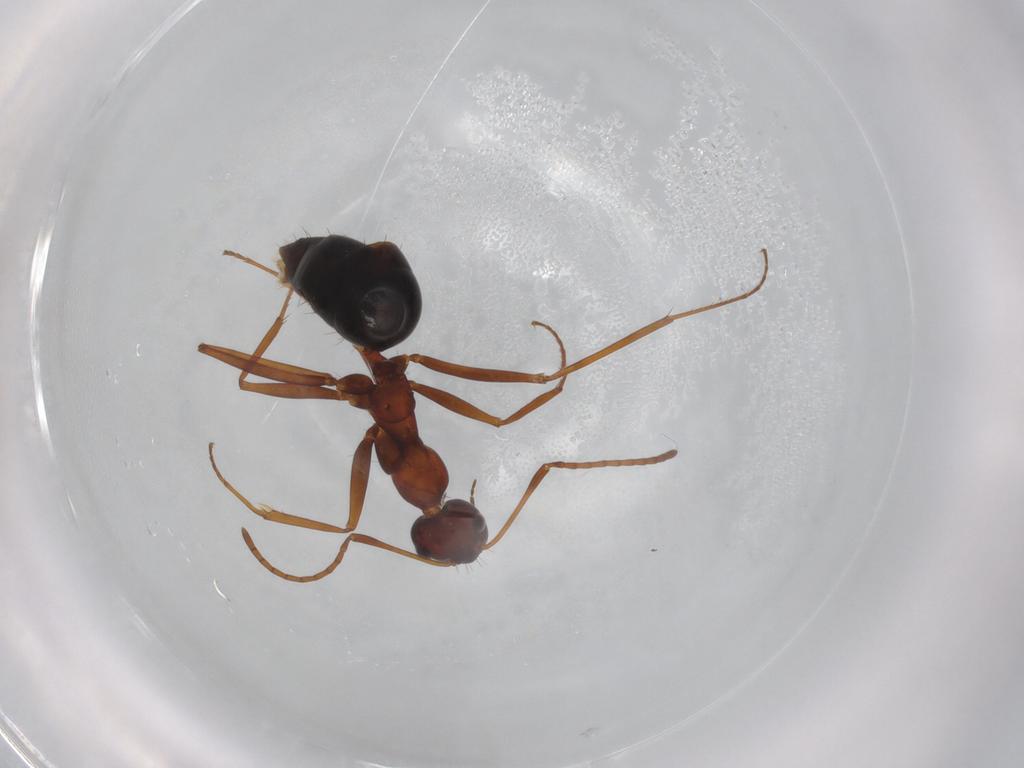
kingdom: Animalia
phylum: Arthropoda
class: Insecta
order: Hymenoptera
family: Formicidae
